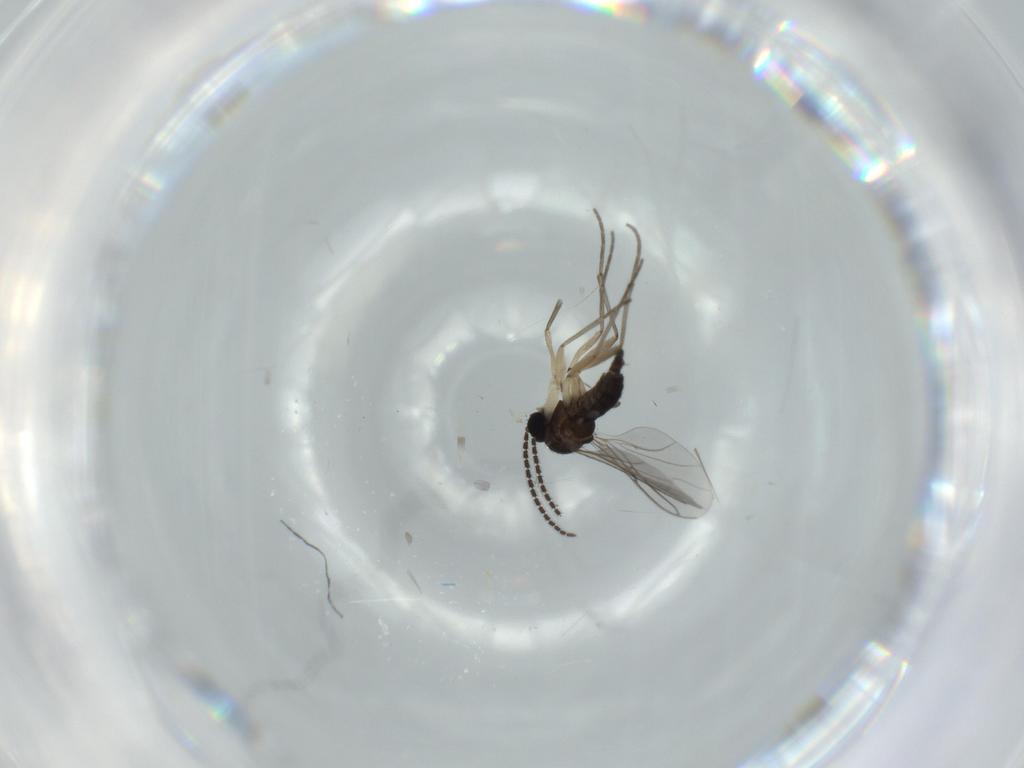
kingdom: Animalia
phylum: Arthropoda
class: Insecta
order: Diptera
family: Sciaridae
